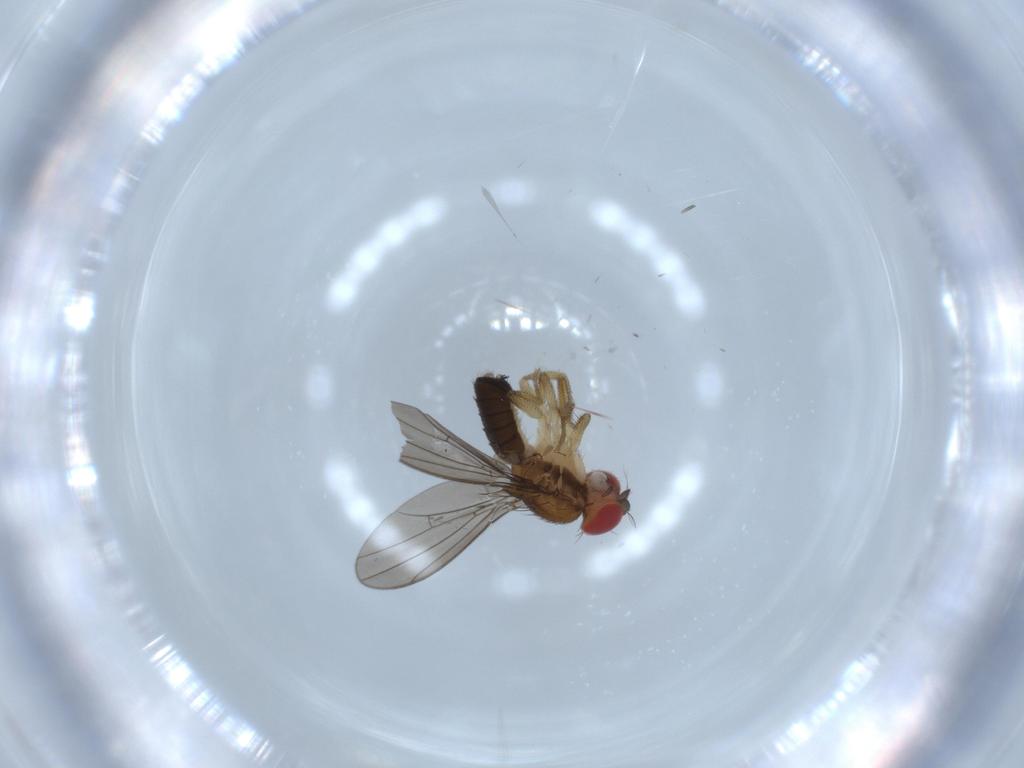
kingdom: Animalia
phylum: Arthropoda
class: Insecta
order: Diptera
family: Drosophilidae
